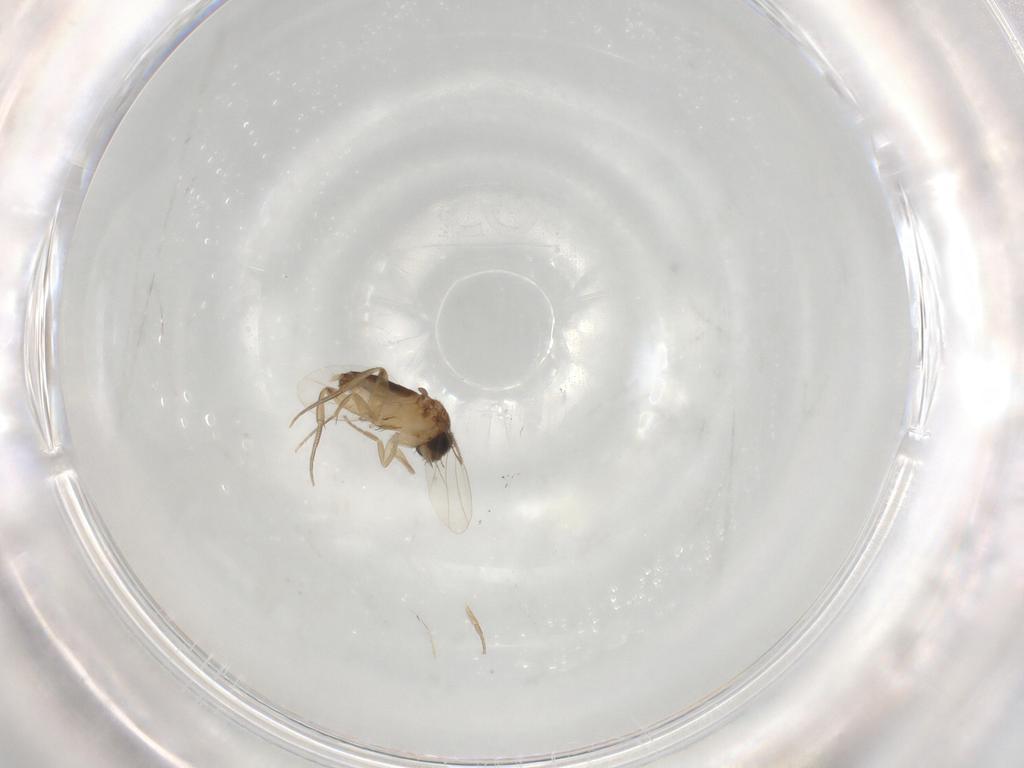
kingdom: Animalia
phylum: Arthropoda
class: Insecta
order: Diptera
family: Phoridae
